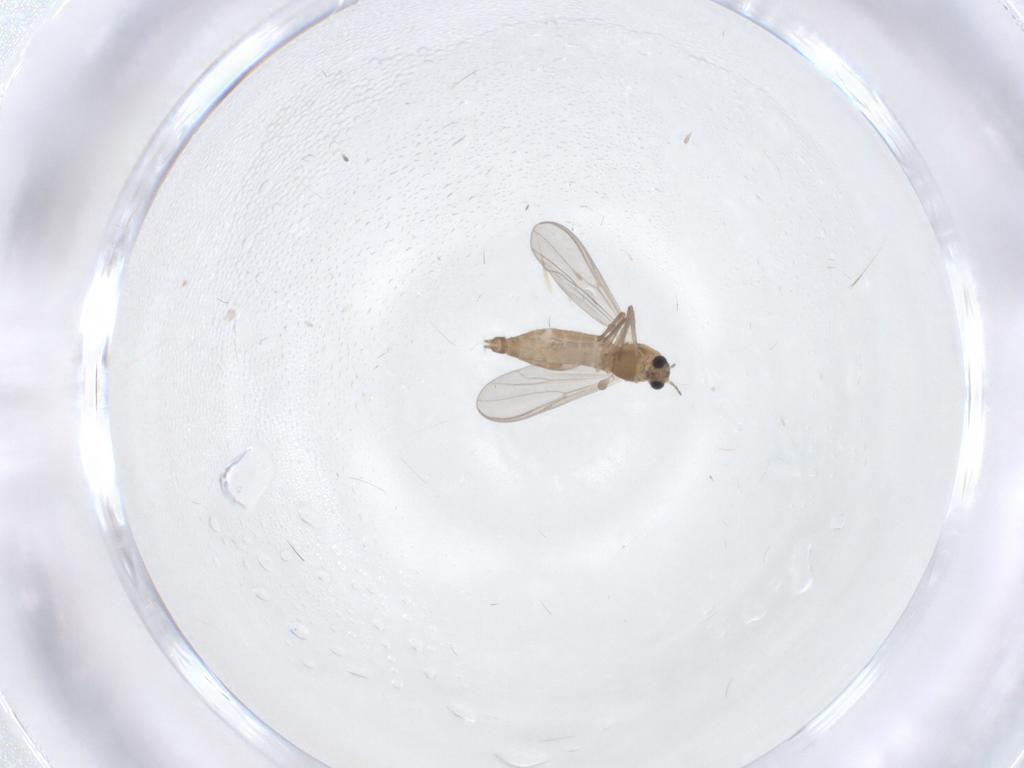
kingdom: Animalia
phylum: Arthropoda
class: Insecta
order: Diptera
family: Chironomidae
